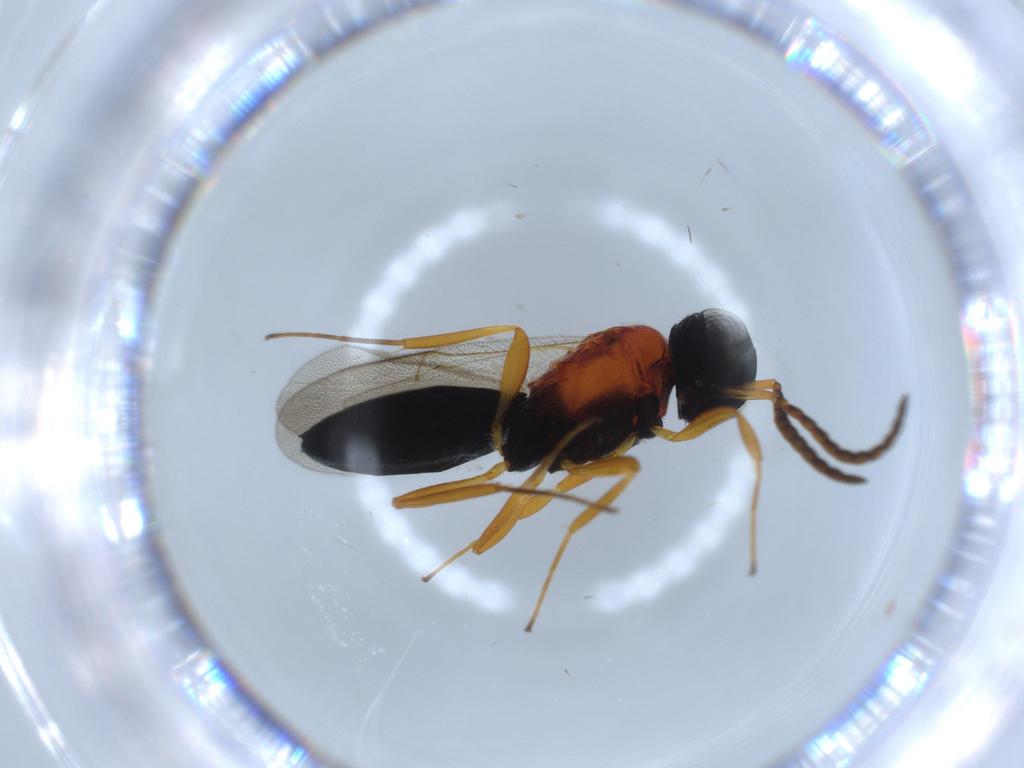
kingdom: Animalia
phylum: Arthropoda
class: Insecta
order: Hymenoptera
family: Scelionidae
